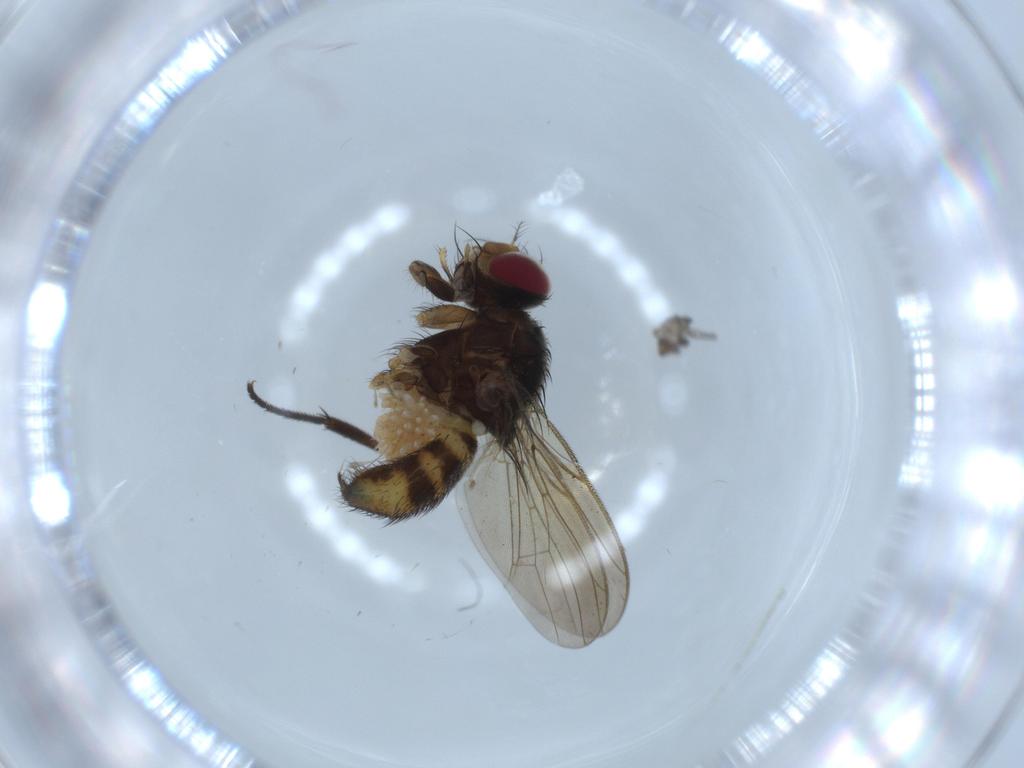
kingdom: Animalia
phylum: Arthropoda
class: Insecta
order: Diptera
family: Anthomyiidae
